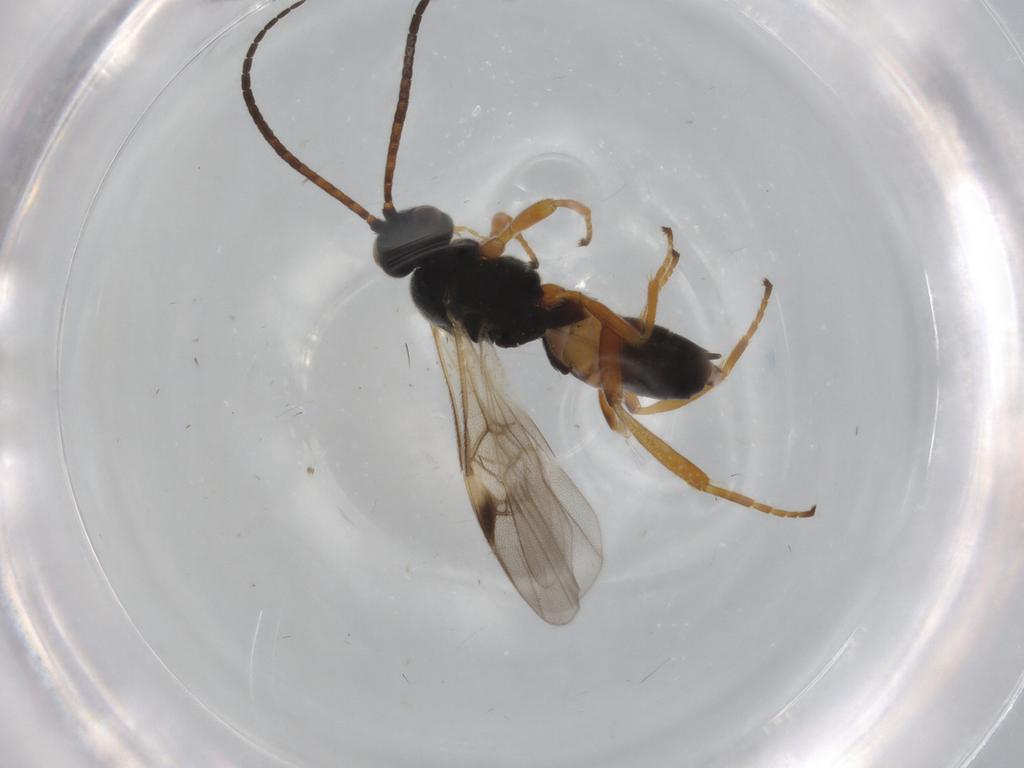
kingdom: Animalia
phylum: Arthropoda
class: Insecta
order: Hymenoptera
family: Braconidae
